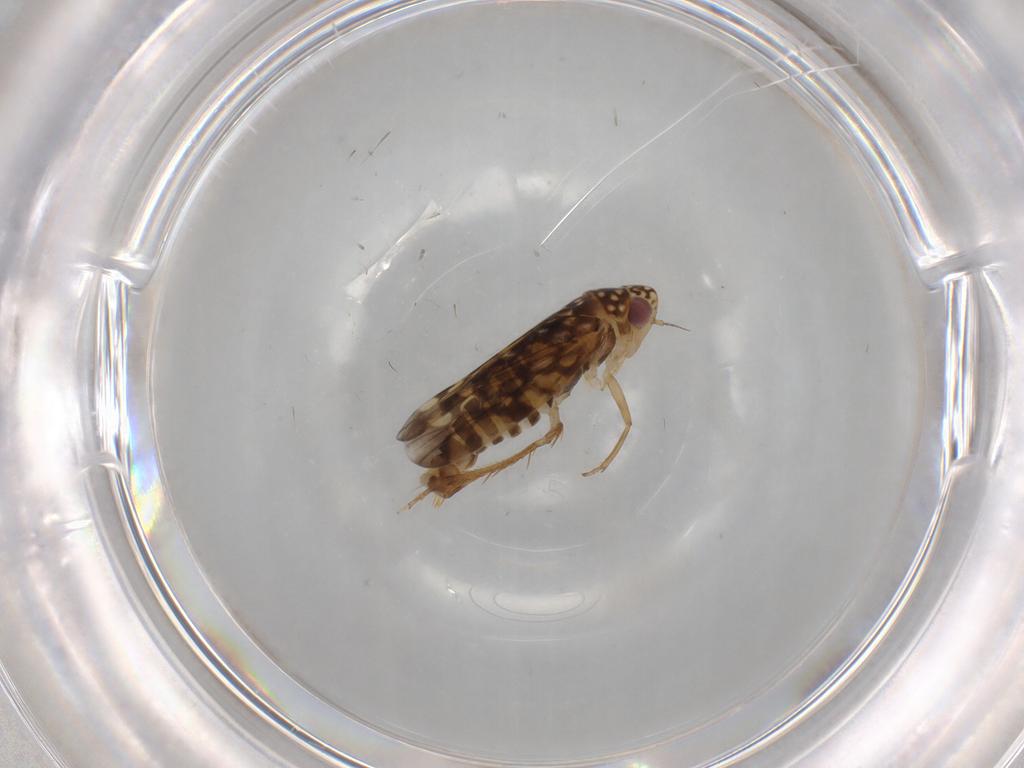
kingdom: Animalia
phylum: Arthropoda
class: Insecta
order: Hemiptera
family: Cicadellidae
